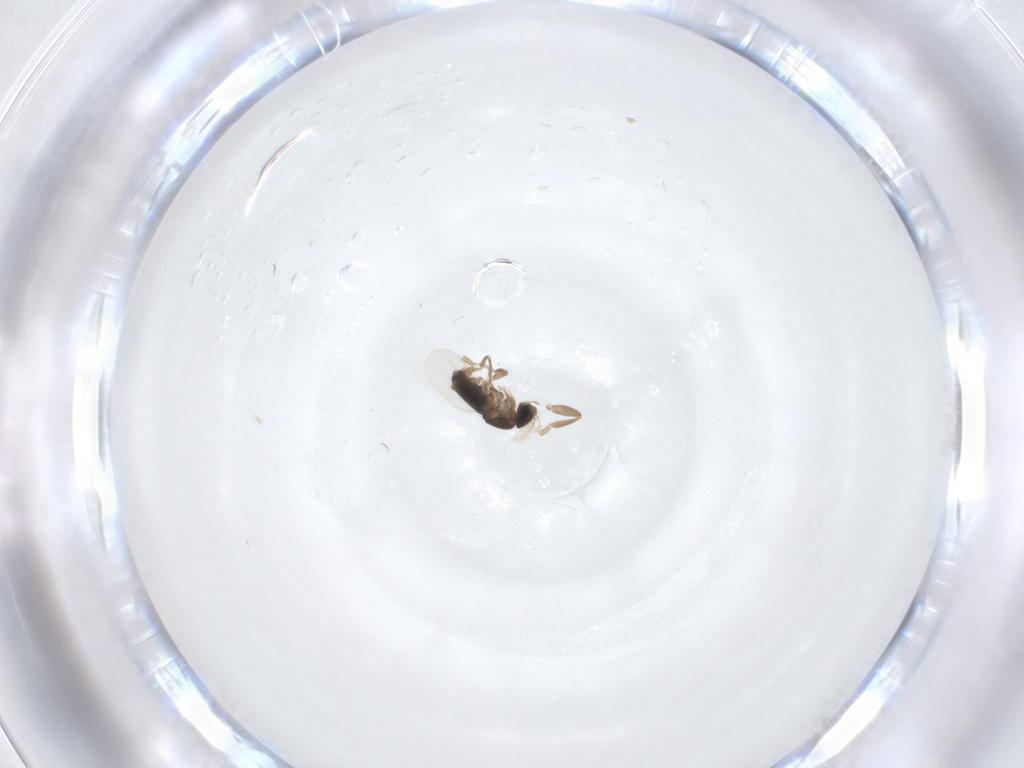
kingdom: Animalia
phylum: Arthropoda
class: Insecta
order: Diptera
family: Phoridae
